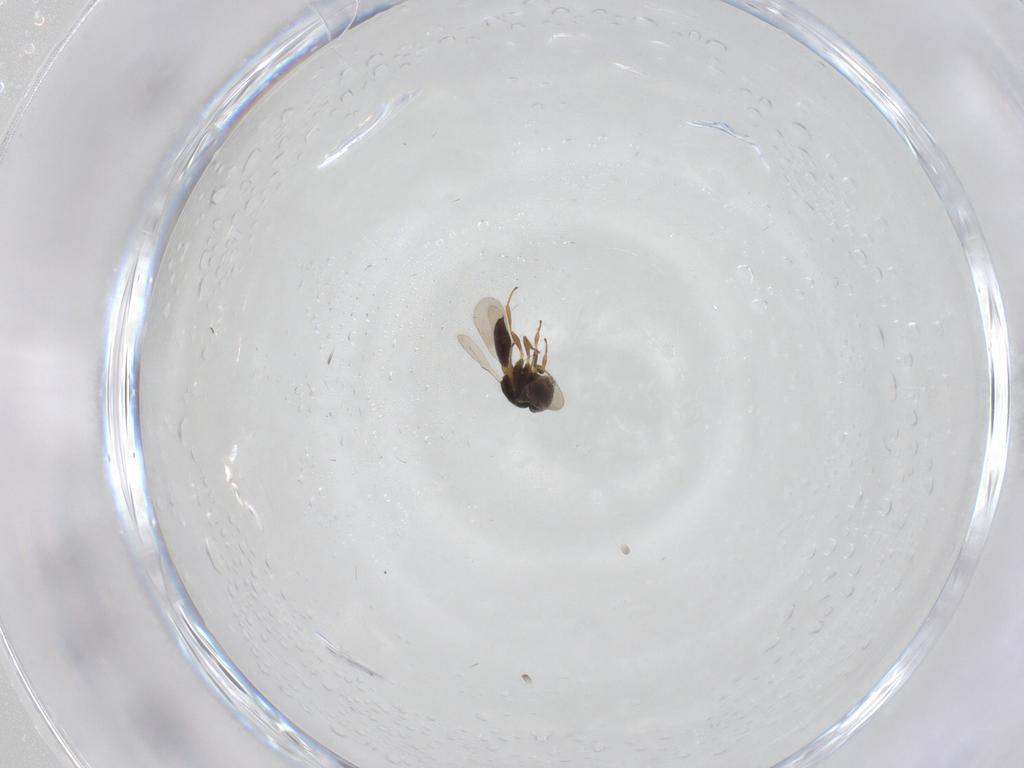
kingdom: Animalia
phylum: Arthropoda
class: Insecta
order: Hymenoptera
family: Scelionidae
